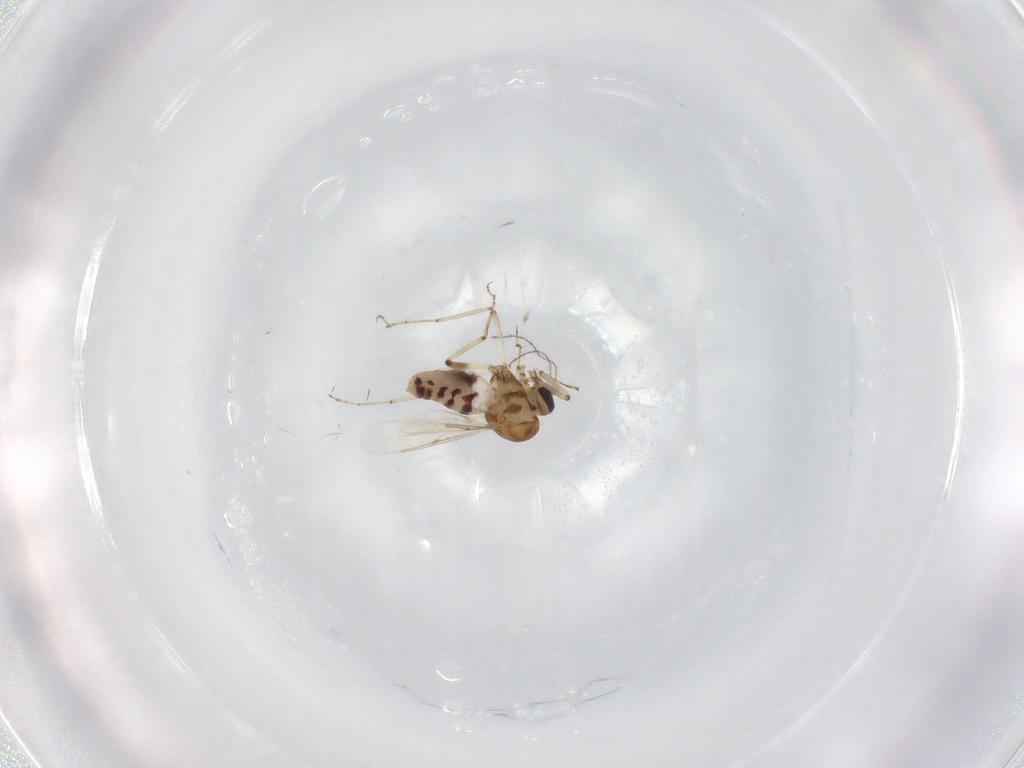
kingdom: Animalia
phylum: Arthropoda
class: Insecta
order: Diptera
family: Ceratopogonidae
